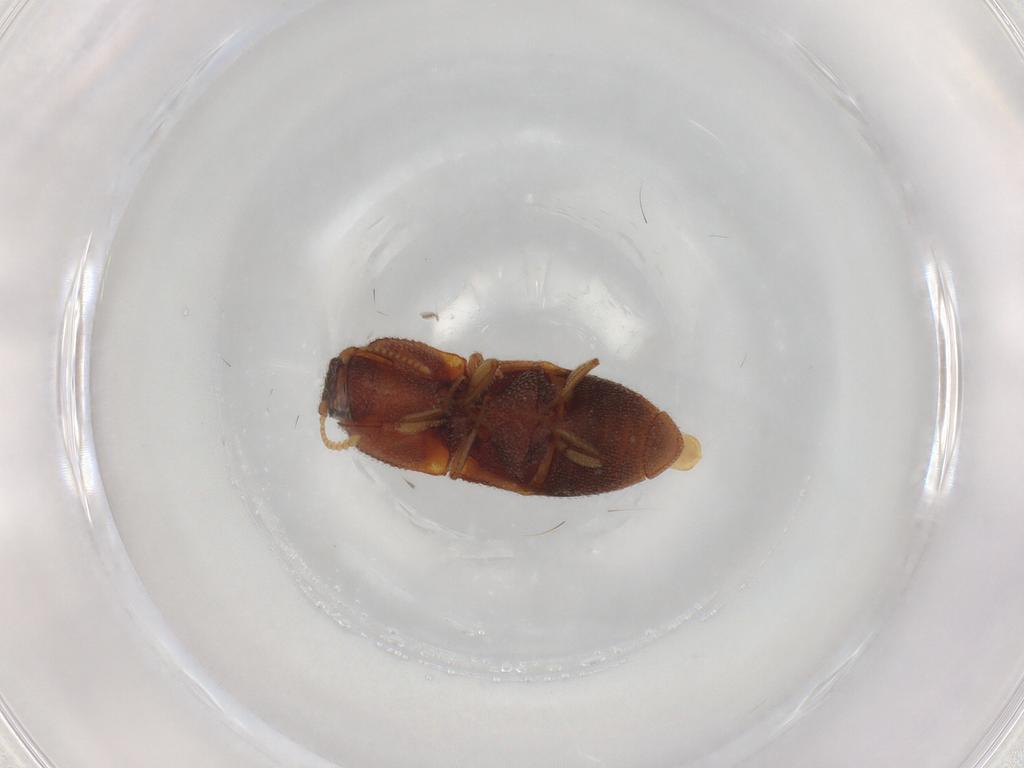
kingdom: Animalia
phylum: Arthropoda
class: Insecta
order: Coleoptera
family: Elateridae
